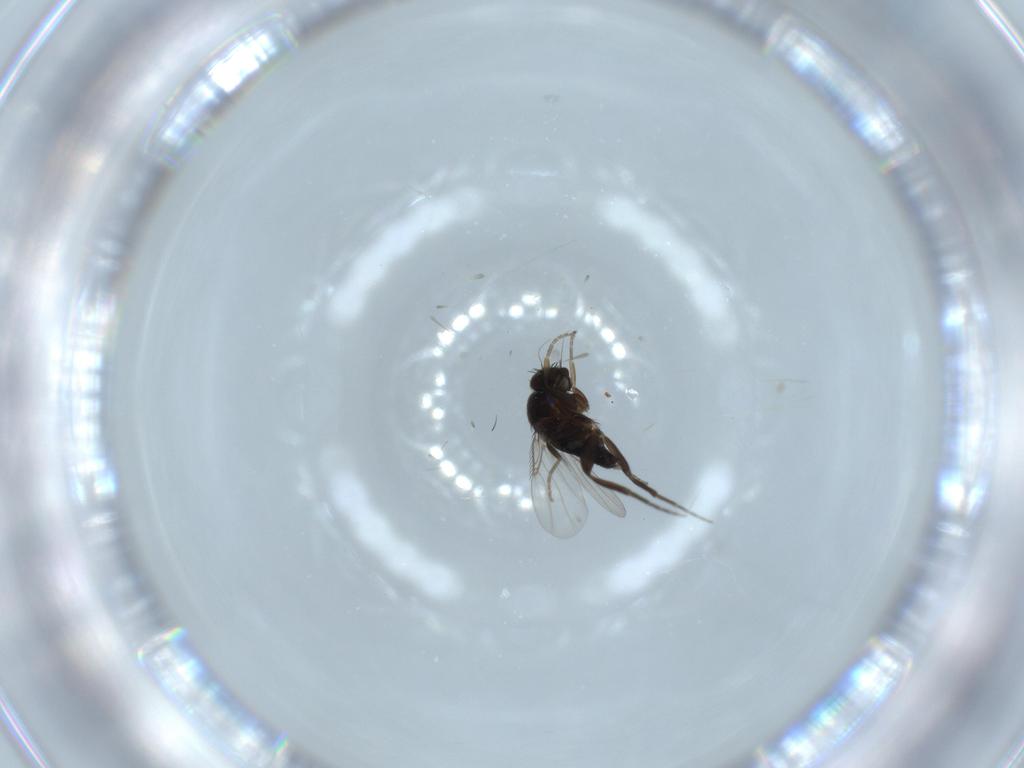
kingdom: Animalia
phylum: Arthropoda
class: Insecta
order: Diptera
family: Phoridae
